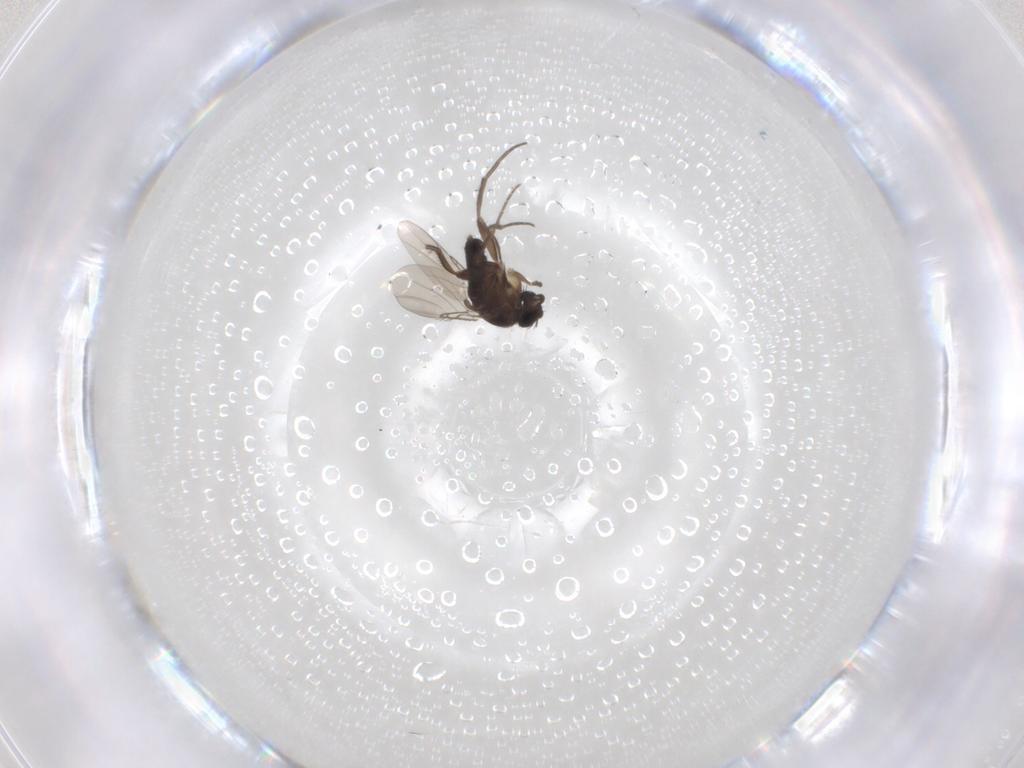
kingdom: Animalia
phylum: Arthropoda
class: Insecta
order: Diptera
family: Phoridae
